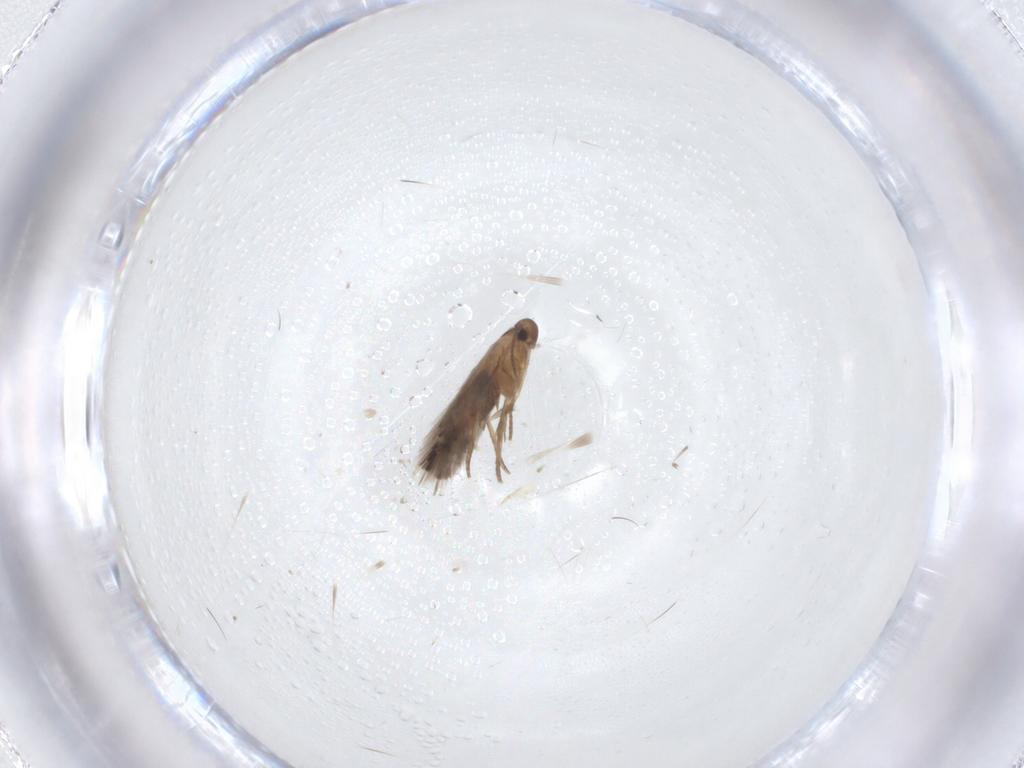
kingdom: Animalia
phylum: Arthropoda
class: Insecta
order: Lepidoptera
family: Heliozelidae
